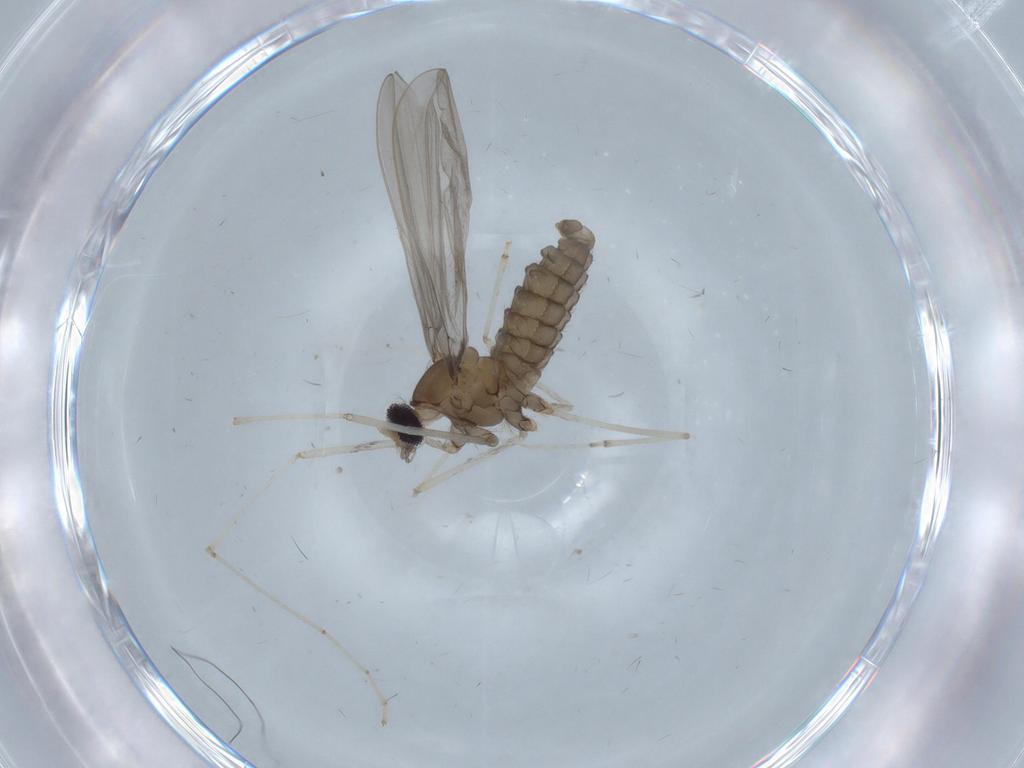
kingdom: Animalia
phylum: Arthropoda
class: Insecta
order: Diptera
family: Cecidomyiidae
